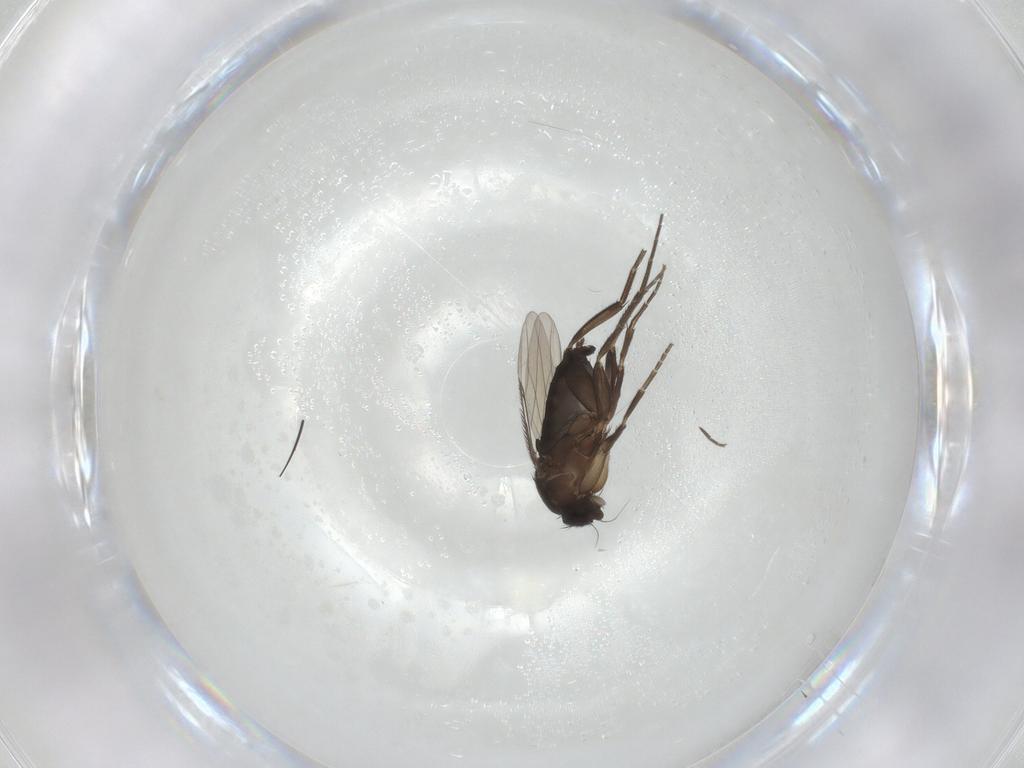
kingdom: Animalia
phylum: Arthropoda
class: Insecta
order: Diptera
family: Phoridae
